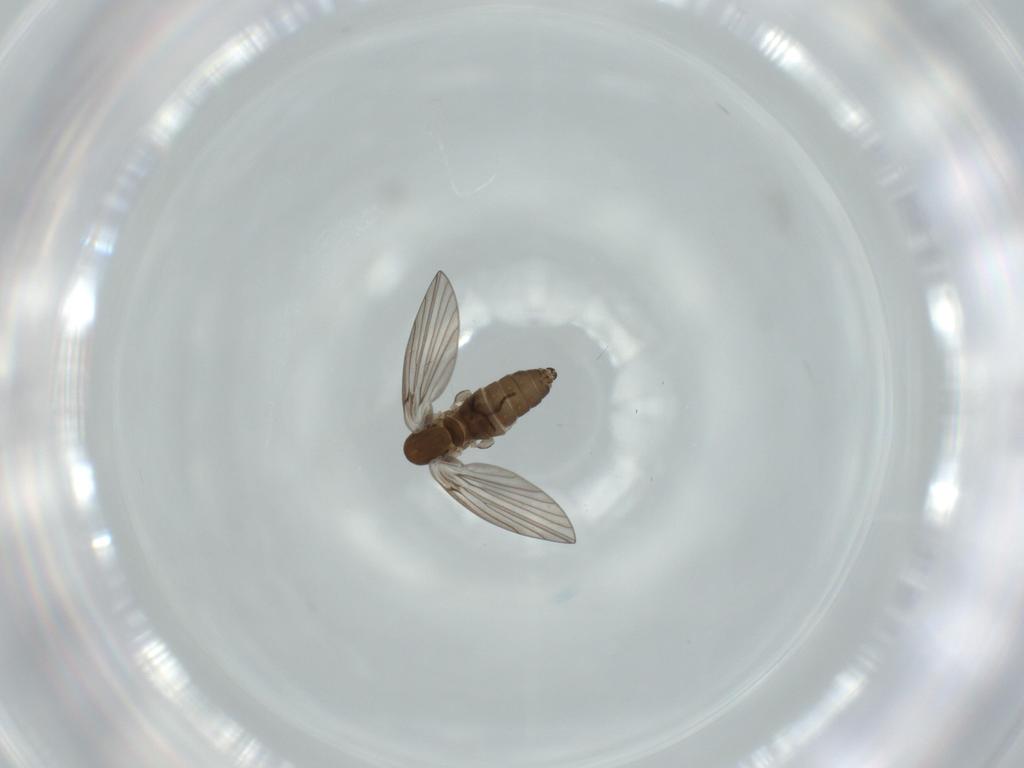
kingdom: Animalia
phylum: Arthropoda
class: Insecta
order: Diptera
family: Psychodidae
